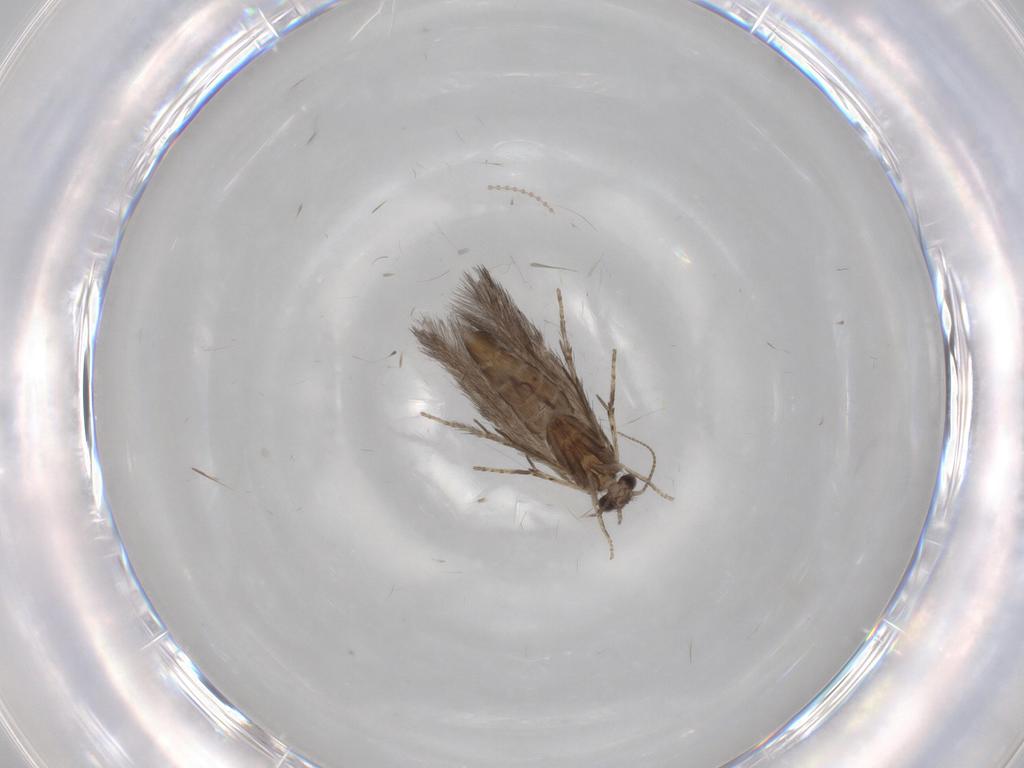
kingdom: Animalia
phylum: Arthropoda
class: Insecta
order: Trichoptera
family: Hydroptilidae
